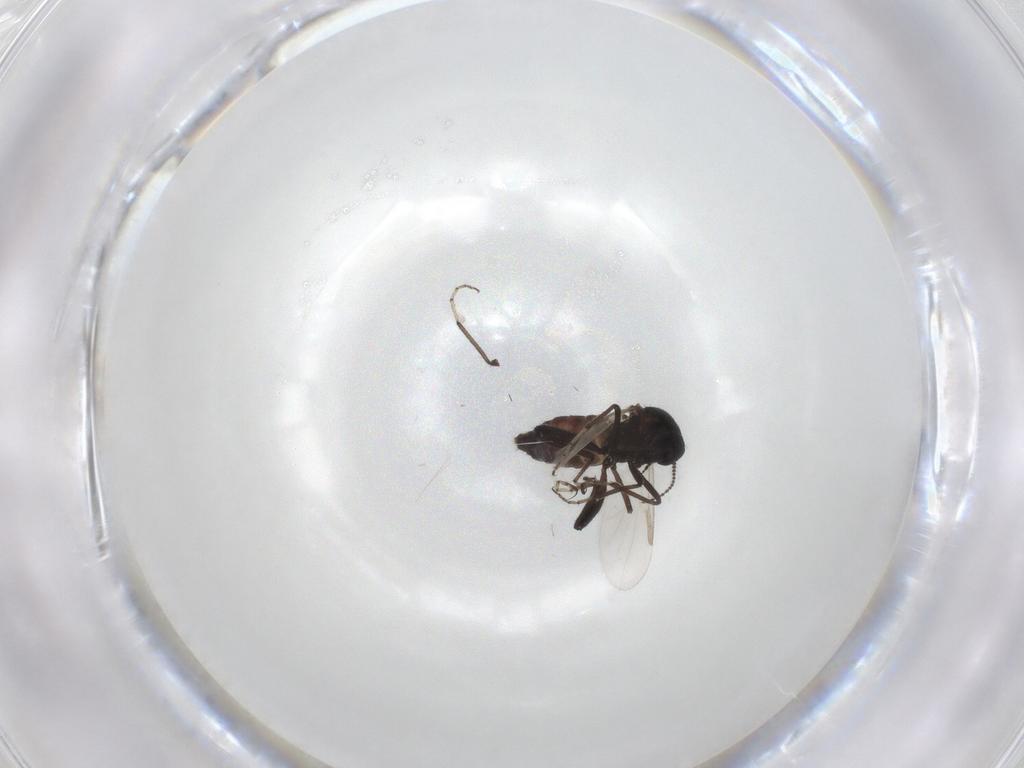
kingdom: Animalia
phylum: Arthropoda
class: Insecta
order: Diptera
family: Ceratopogonidae
